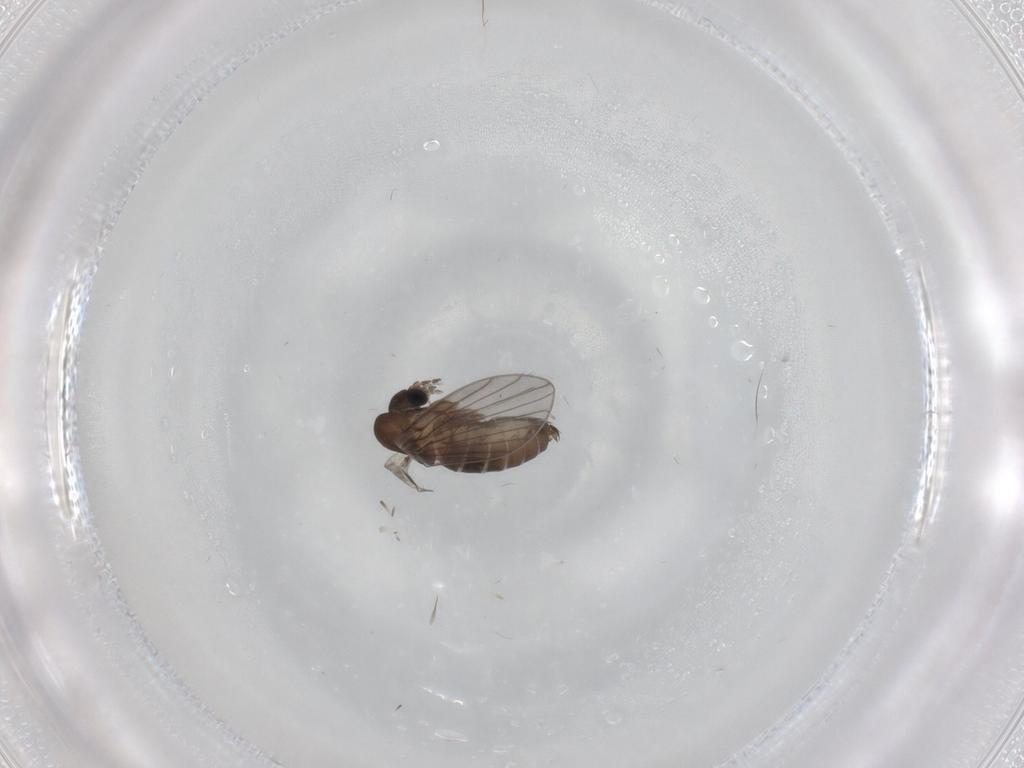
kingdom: Animalia
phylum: Arthropoda
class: Insecta
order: Diptera
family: Psychodidae
